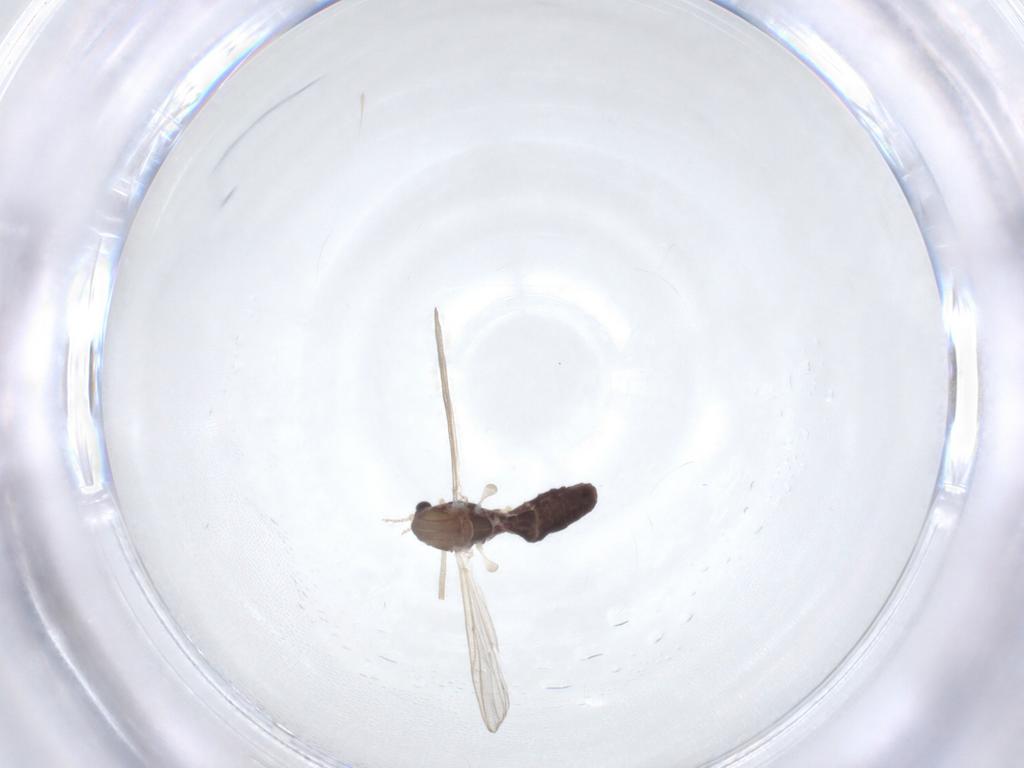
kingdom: Animalia
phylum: Arthropoda
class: Insecta
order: Diptera
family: Chironomidae
